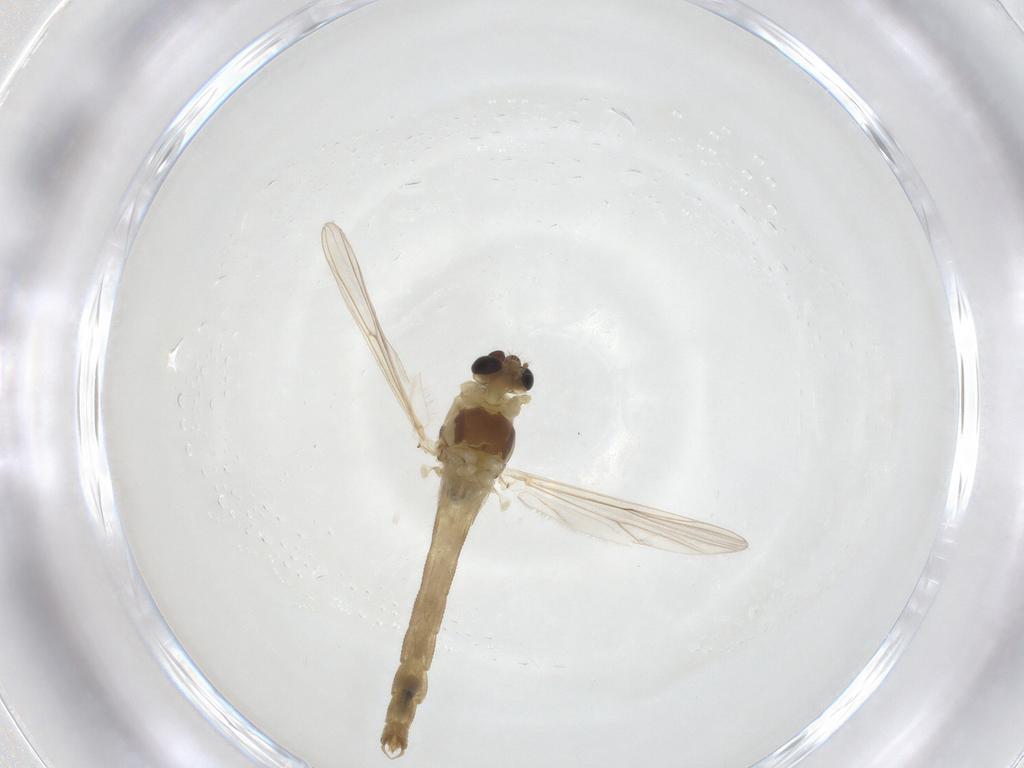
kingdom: Animalia
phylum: Arthropoda
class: Insecta
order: Diptera
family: Chironomidae
